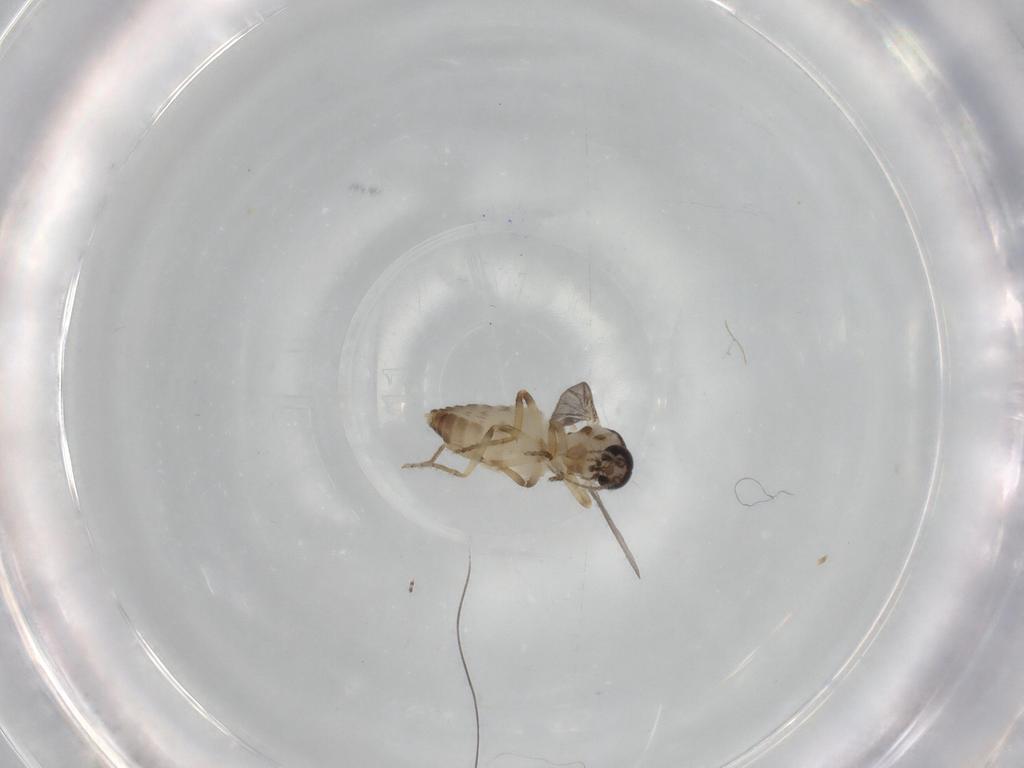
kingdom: Animalia
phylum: Arthropoda
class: Insecta
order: Diptera
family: Ceratopogonidae
